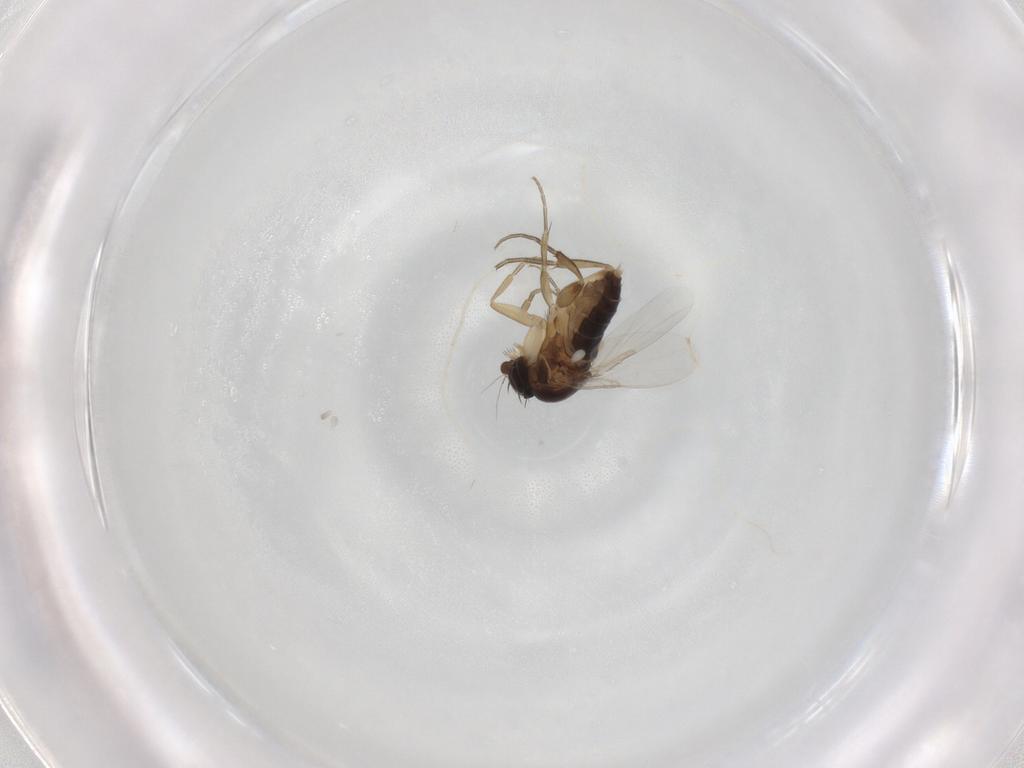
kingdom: Animalia
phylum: Arthropoda
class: Insecta
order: Diptera
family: Phoridae
